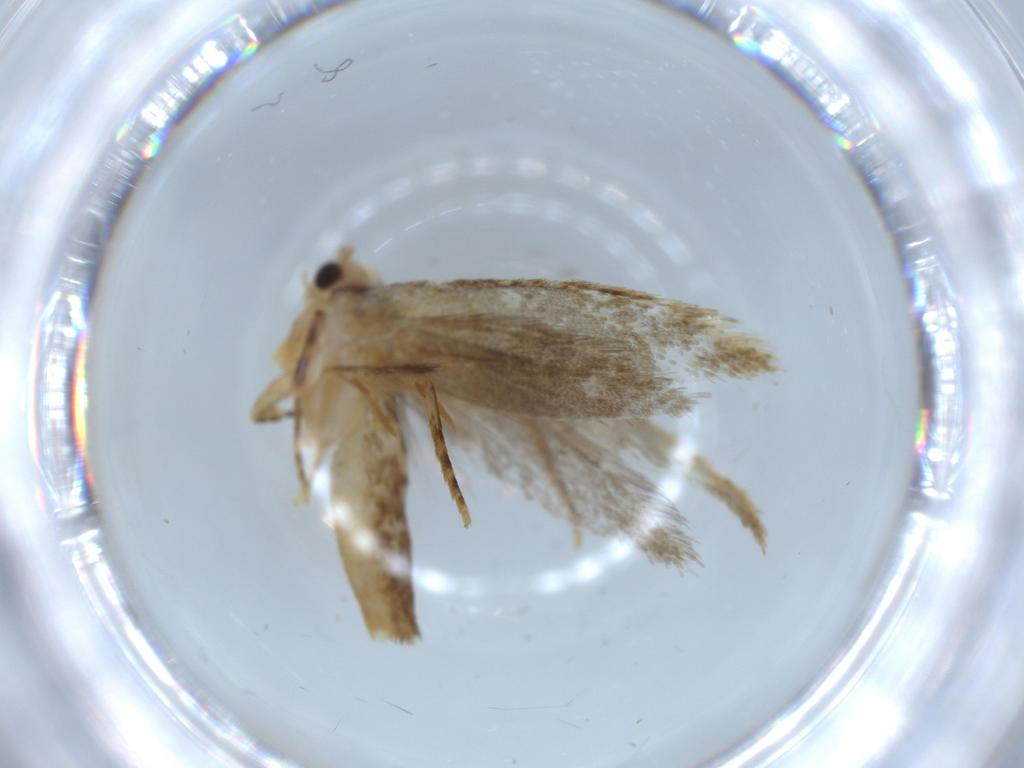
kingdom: Animalia
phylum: Arthropoda
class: Insecta
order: Lepidoptera
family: Tineidae
